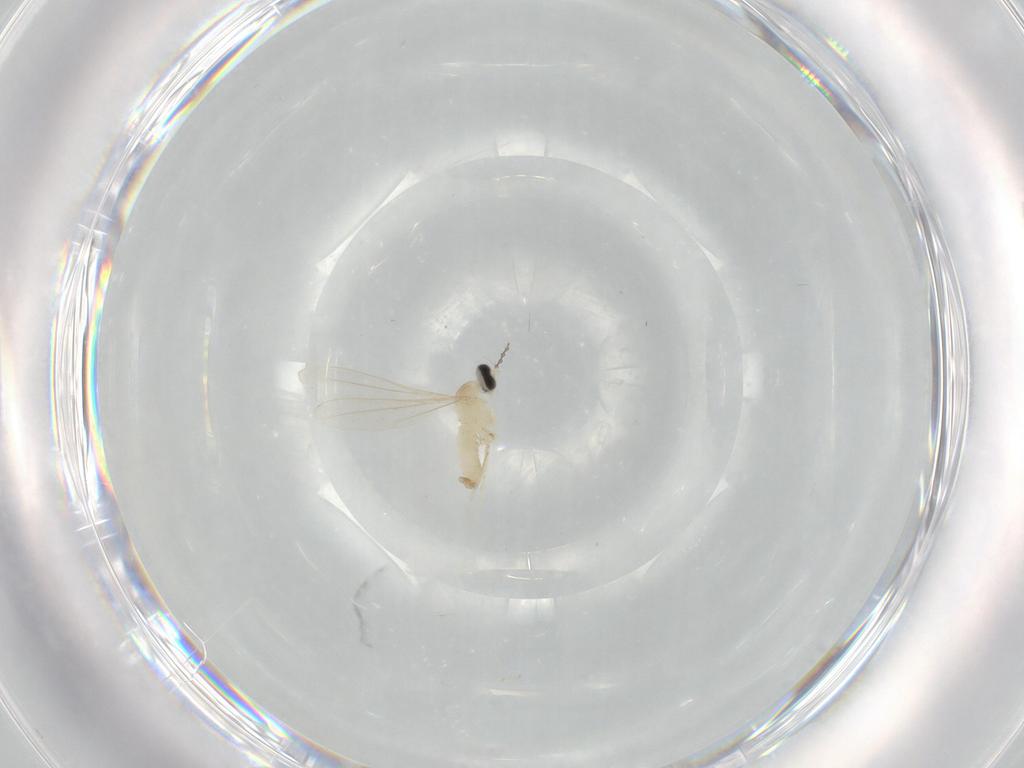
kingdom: Animalia
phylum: Arthropoda
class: Insecta
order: Diptera
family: Cecidomyiidae
